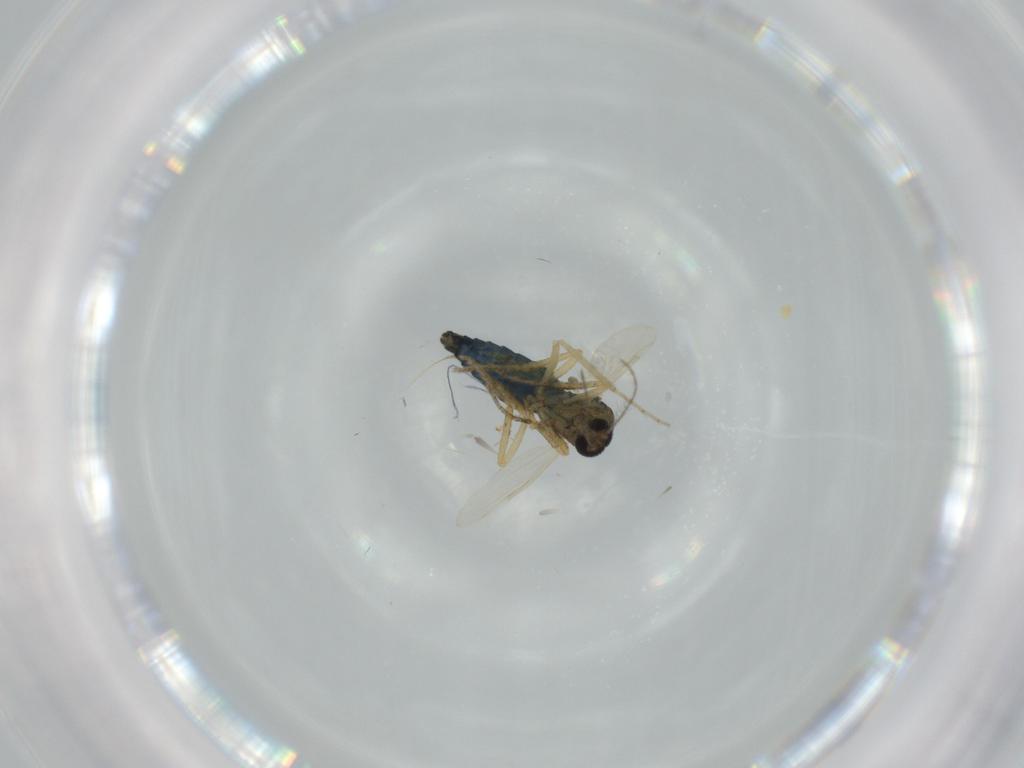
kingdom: Animalia
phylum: Arthropoda
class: Insecta
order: Diptera
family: Ceratopogonidae
